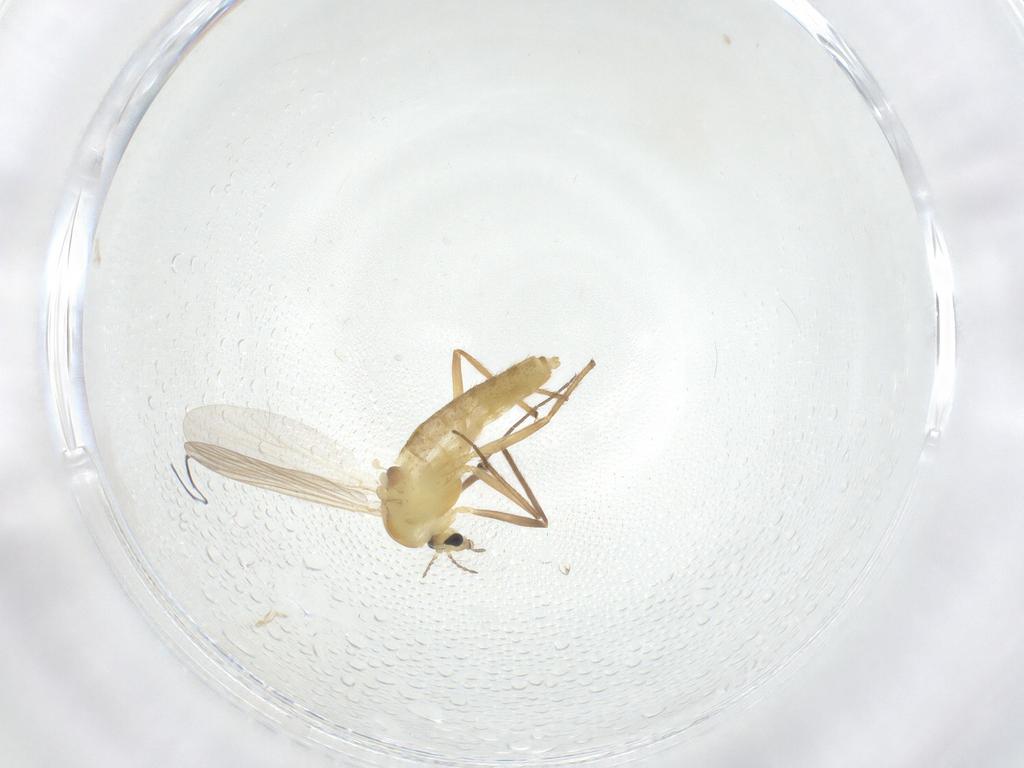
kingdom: Animalia
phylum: Arthropoda
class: Insecta
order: Diptera
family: Chironomidae
